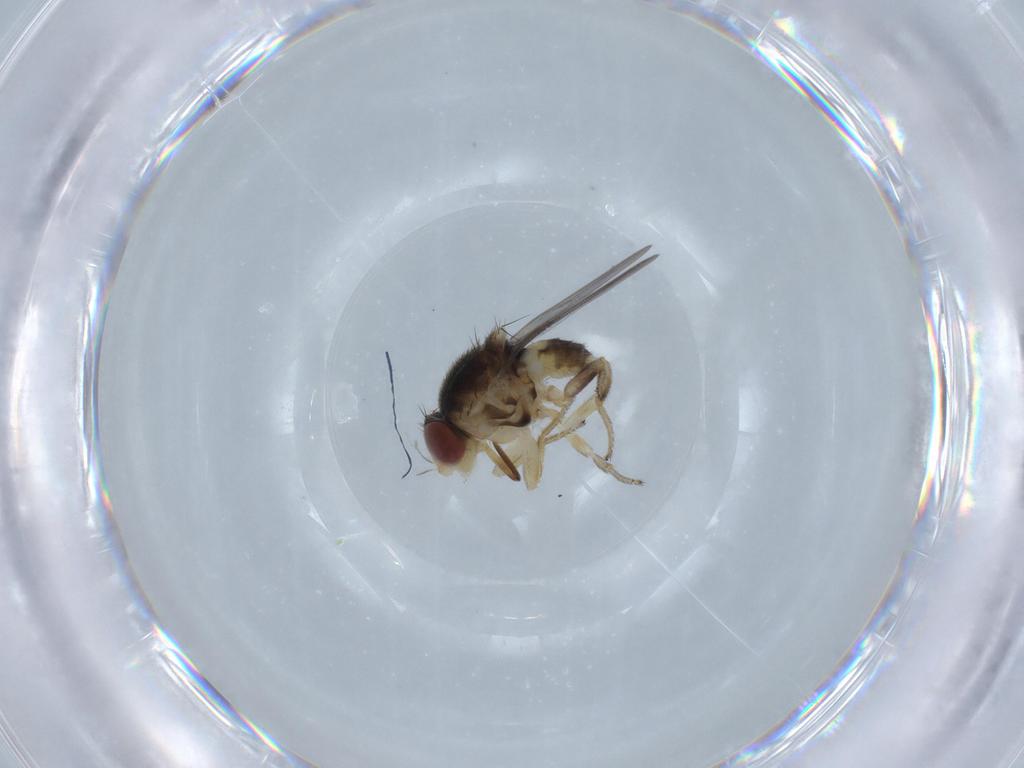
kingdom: Animalia
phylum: Arthropoda
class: Insecta
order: Diptera
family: Chloropidae
